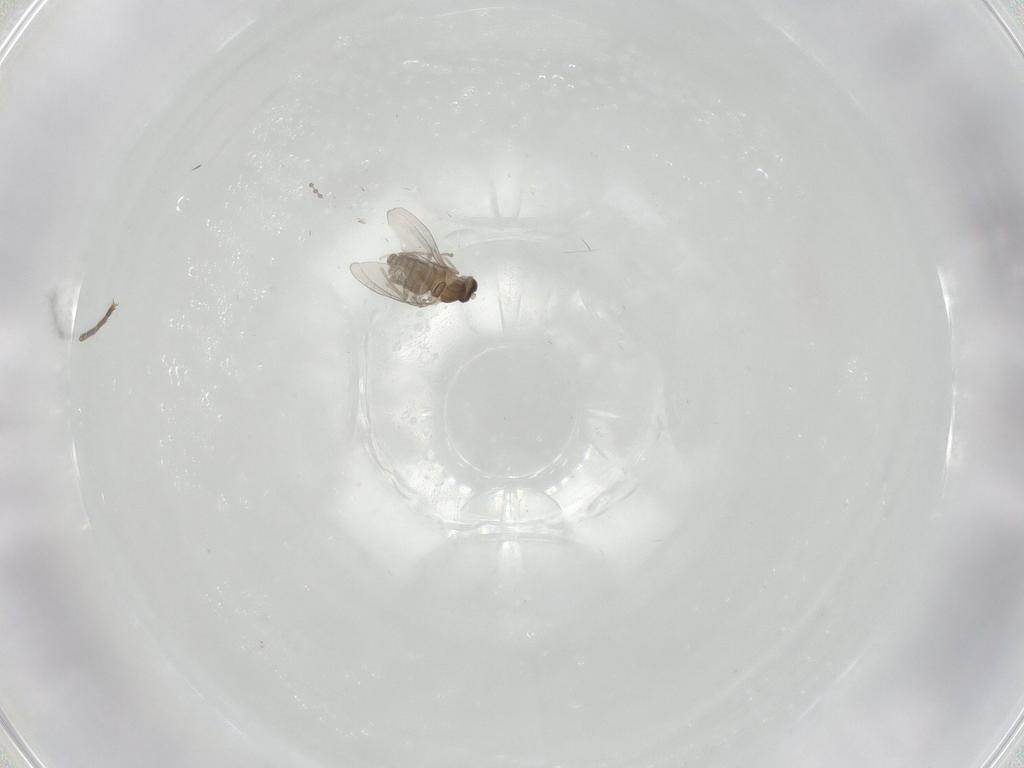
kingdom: Animalia
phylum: Arthropoda
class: Insecta
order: Diptera
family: Dolichopodidae
